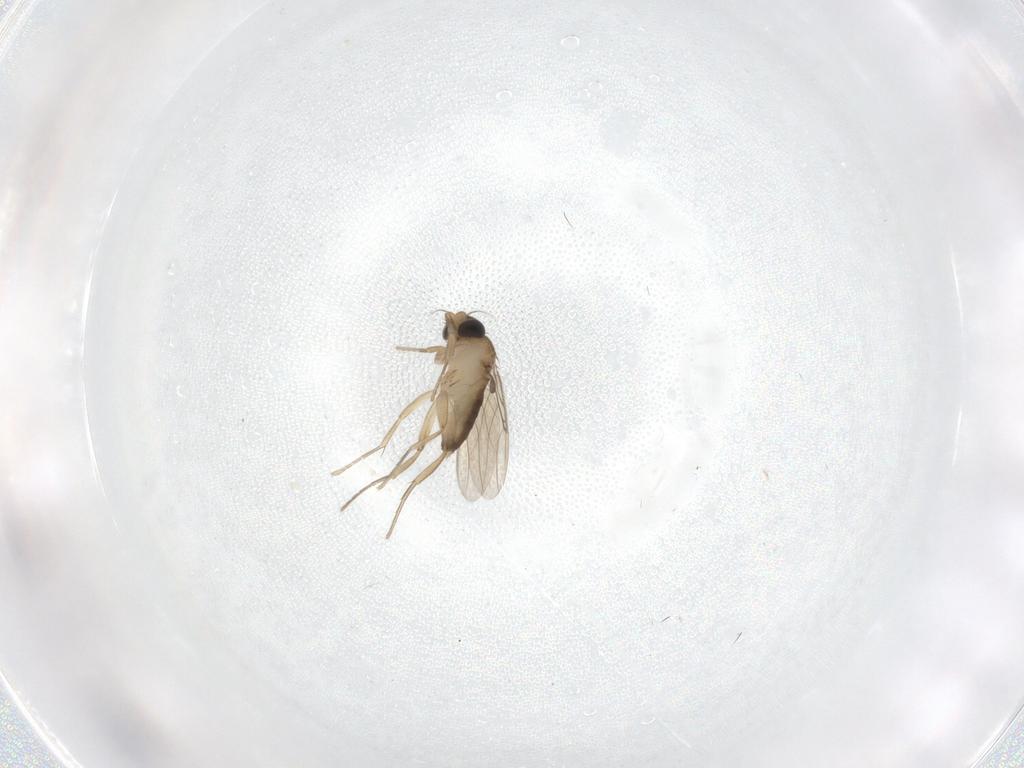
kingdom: Animalia
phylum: Arthropoda
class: Insecta
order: Diptera
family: Phoridae
